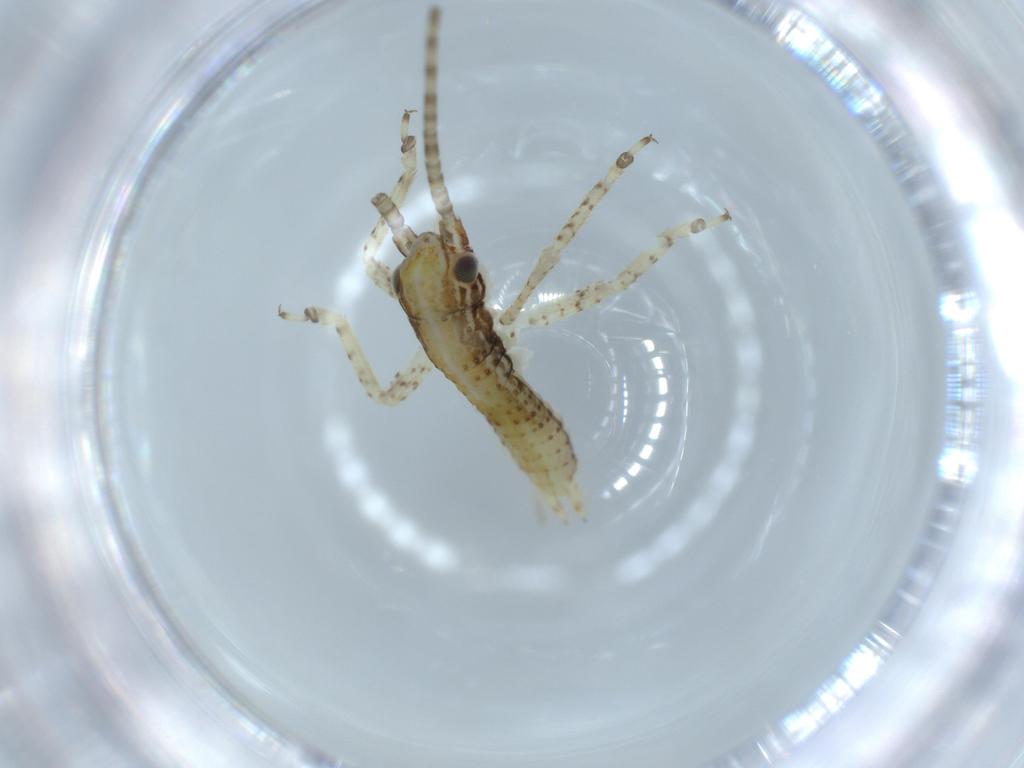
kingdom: Animalia
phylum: Arthropoda
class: Insecta
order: Orthoptera
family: Gryllidae
